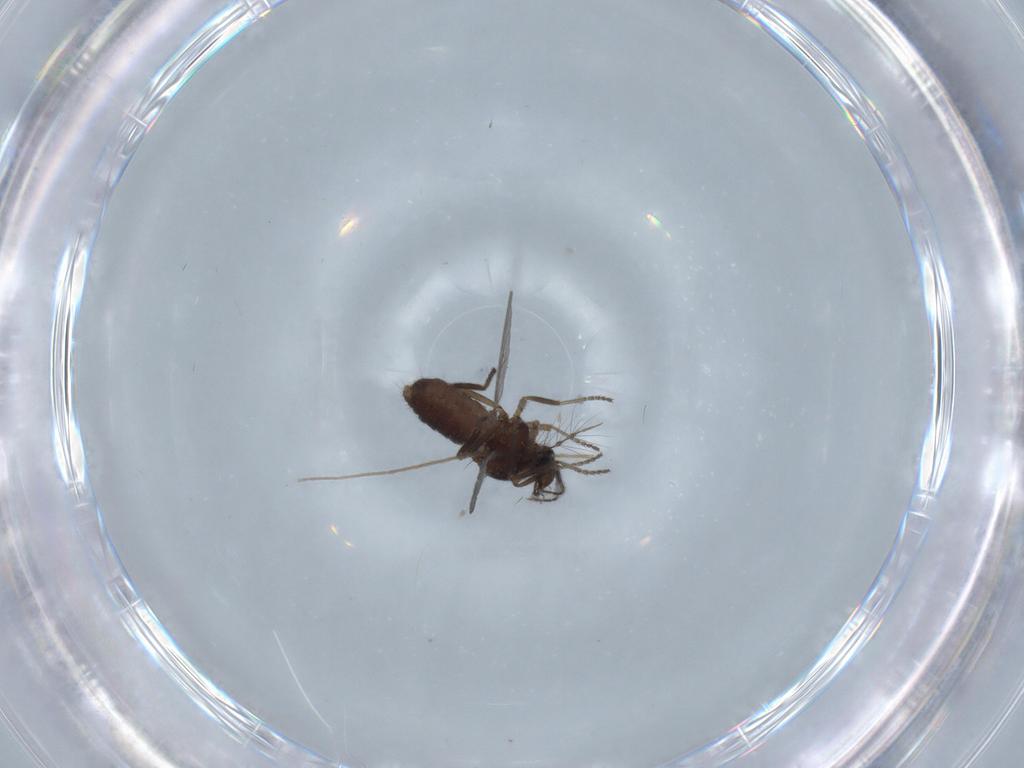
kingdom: Animalia
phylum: Arthropoda
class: Insecta
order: Diptera
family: Ceratopogonidae
